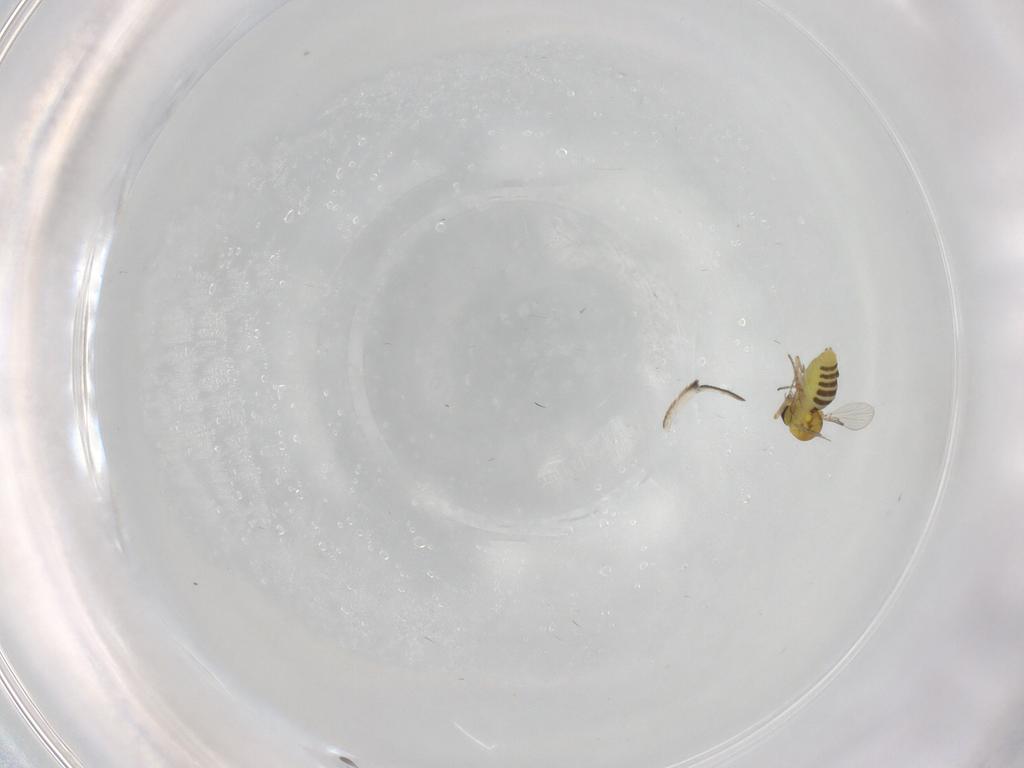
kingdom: Animalia
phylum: Arthropoda
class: Insecta
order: Diptera
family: Ceratopogonidae
